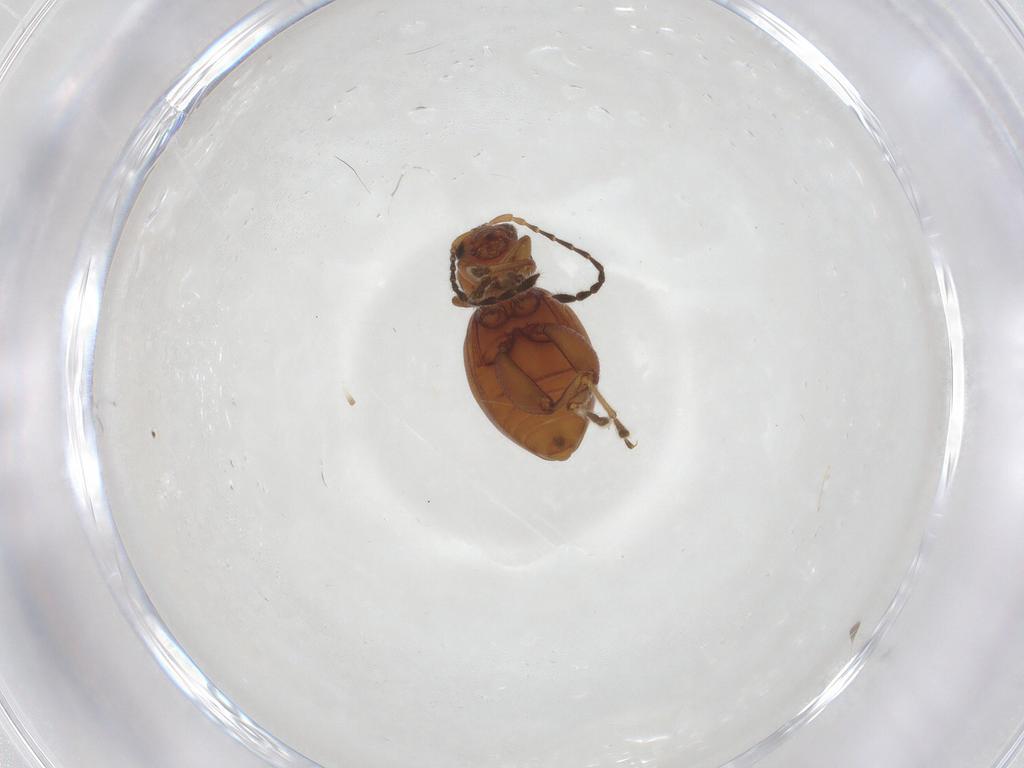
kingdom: Animalia
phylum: Arthropoda
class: Insecta
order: Coleoptera
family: Chrysomelidae
